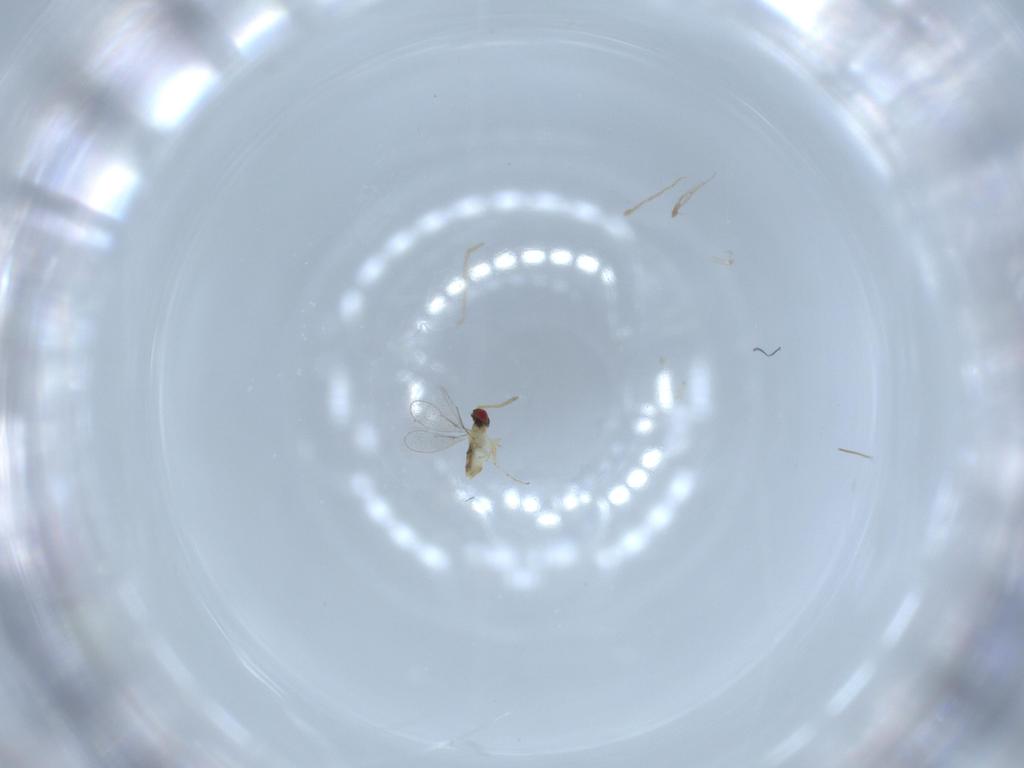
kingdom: Animalia
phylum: Arthropoda
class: Insecta
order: Hymenoptera
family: Aphelinidae
